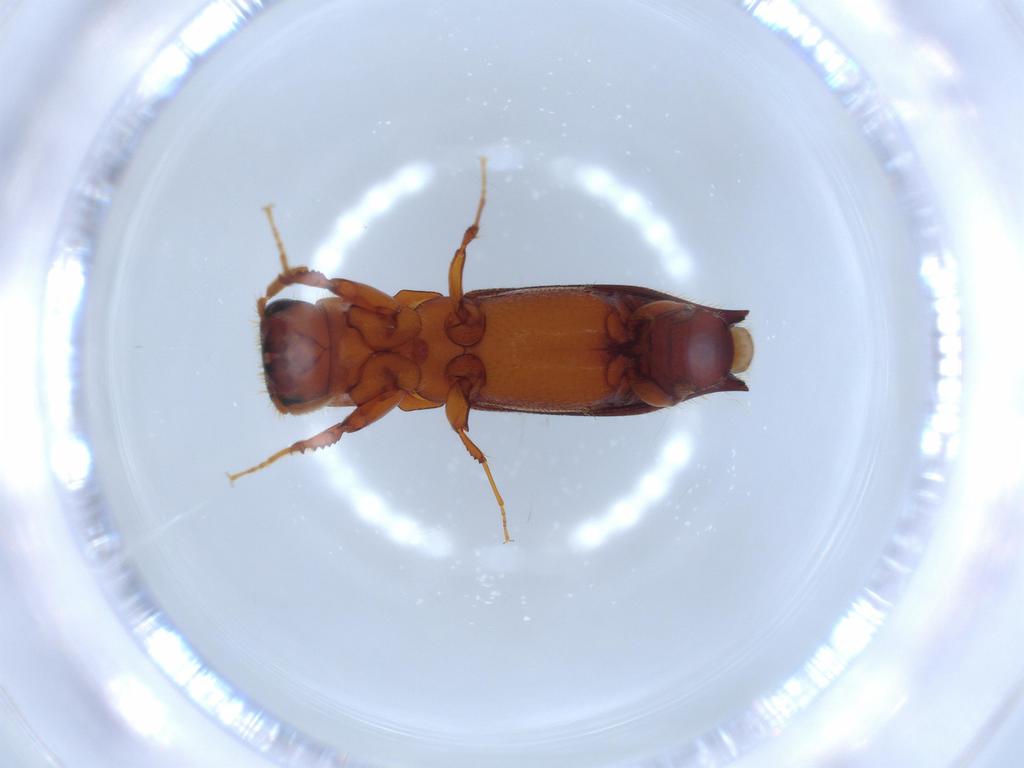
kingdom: Animalia
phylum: Arthropoda
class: Insecta
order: Coleoptera
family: Bostrichidae
